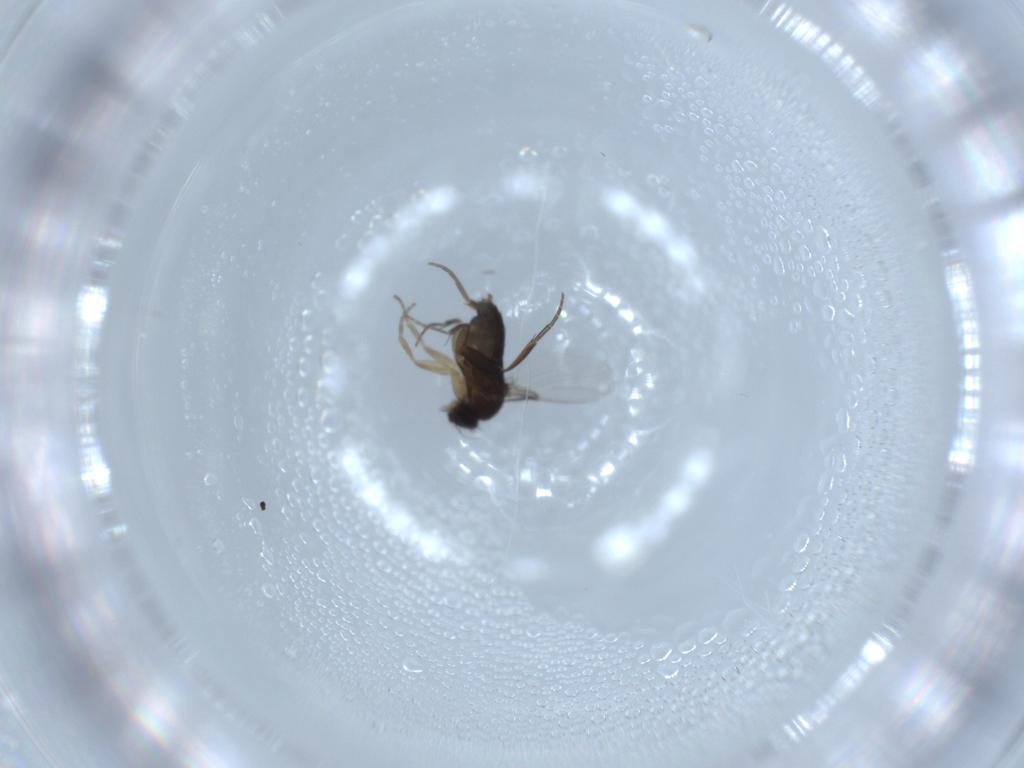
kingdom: Animalia
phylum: Arthropoda
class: Insecta
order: Diptera
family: Phoridae
